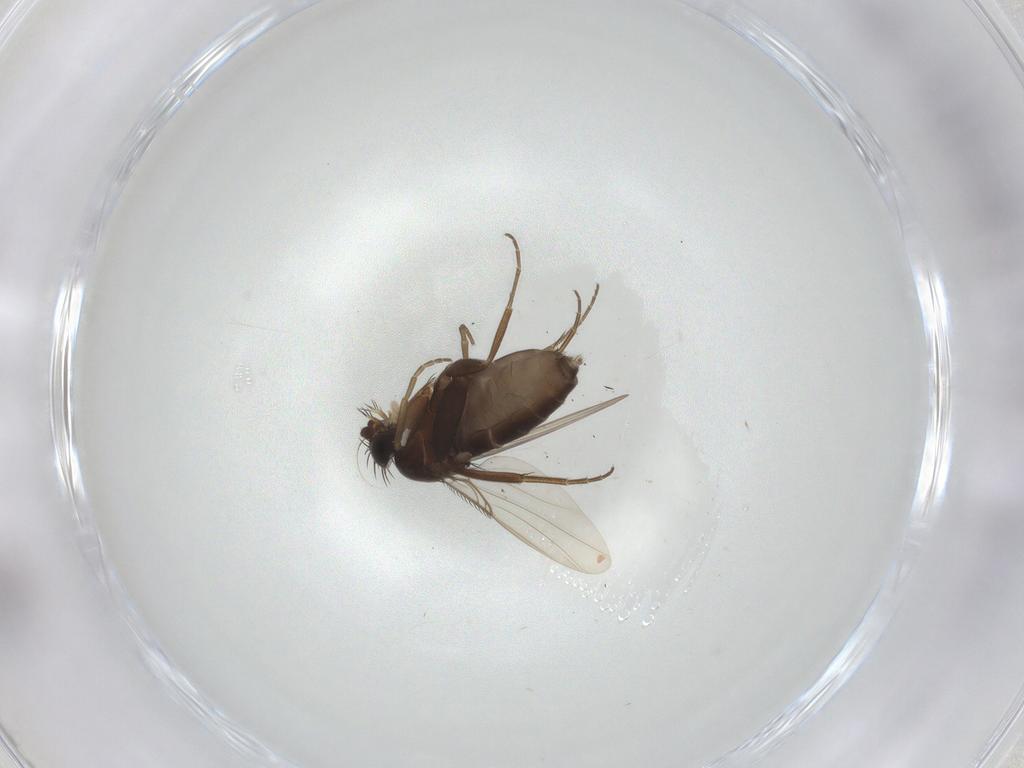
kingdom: Animalia
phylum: Arthropoda
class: Insecta
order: Diptera
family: Phoridae
